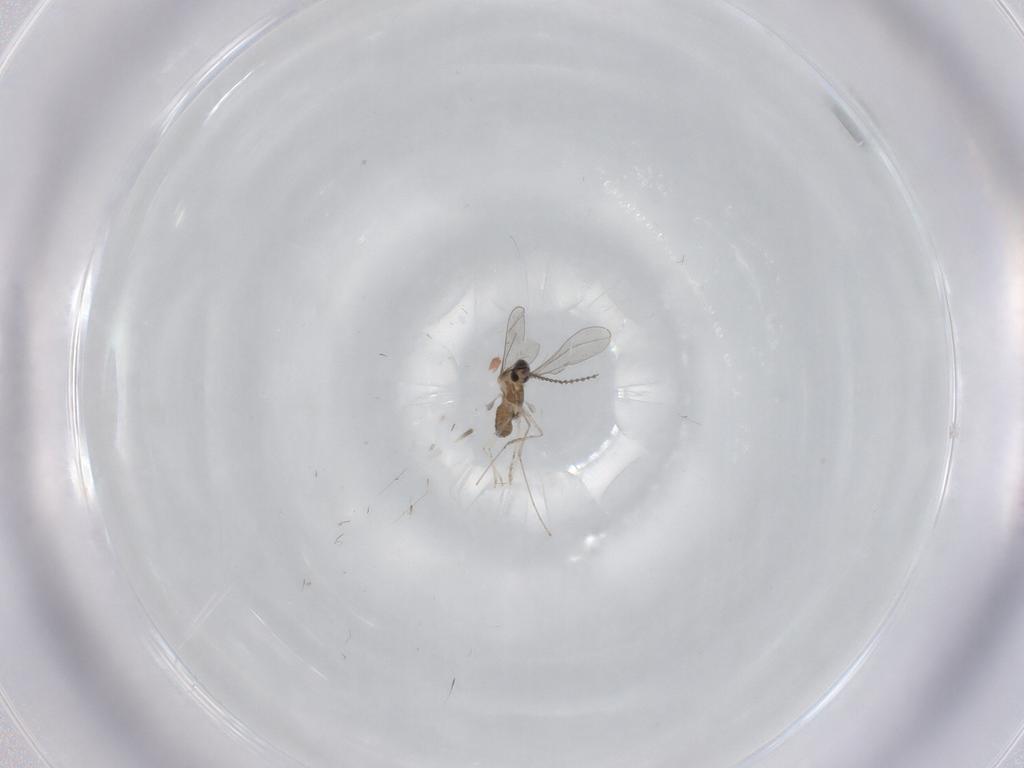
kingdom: Animalia
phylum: Arthropoda
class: Insecta
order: Diptera
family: Cecidomyiidae
